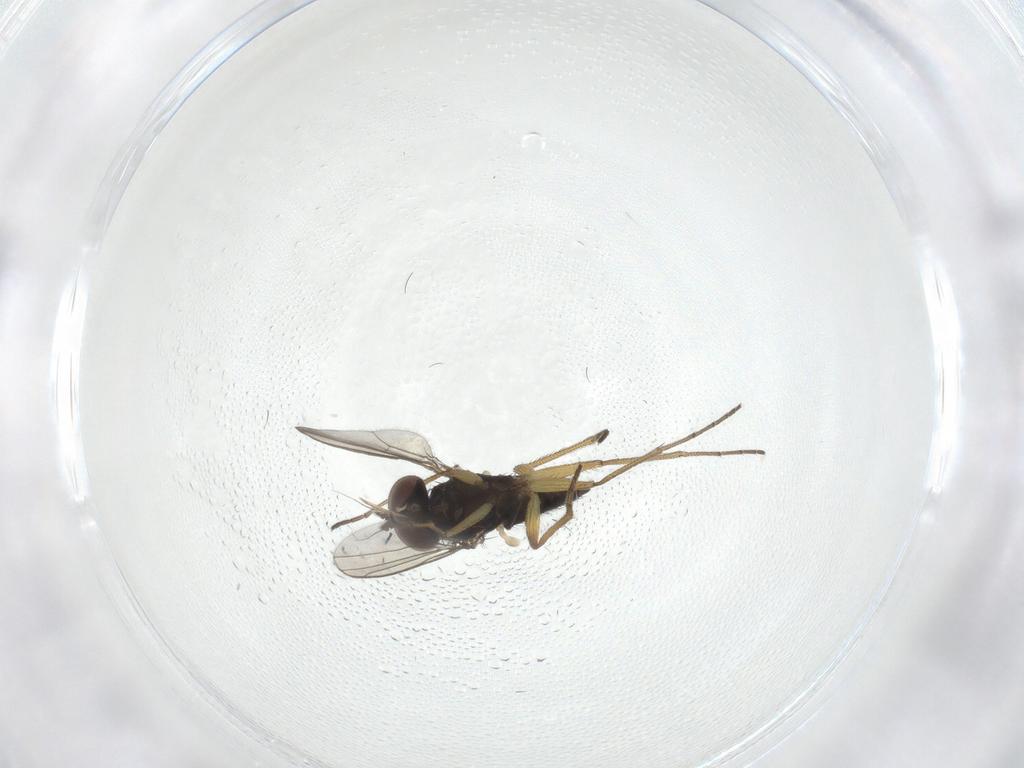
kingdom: Animalia
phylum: Arthropoda
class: Insecta
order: Diptera
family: Dolichopodidae
